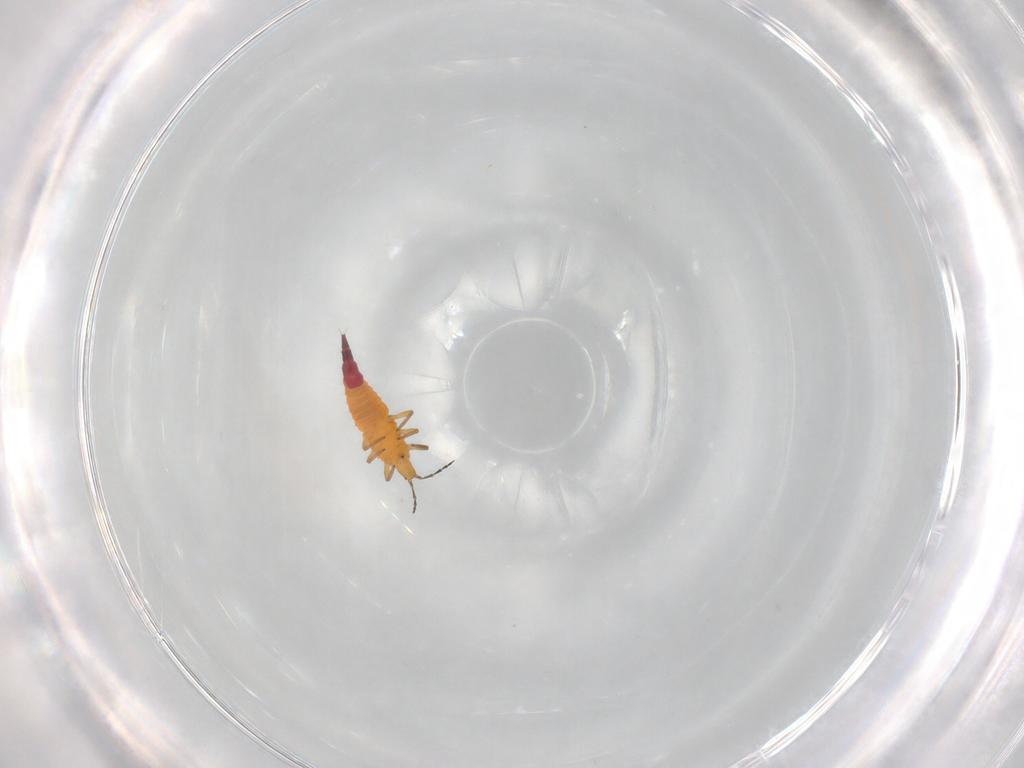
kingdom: Animalia
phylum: Arthropoda
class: Insecta
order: Thysanoptera
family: Phlaeothripidae
